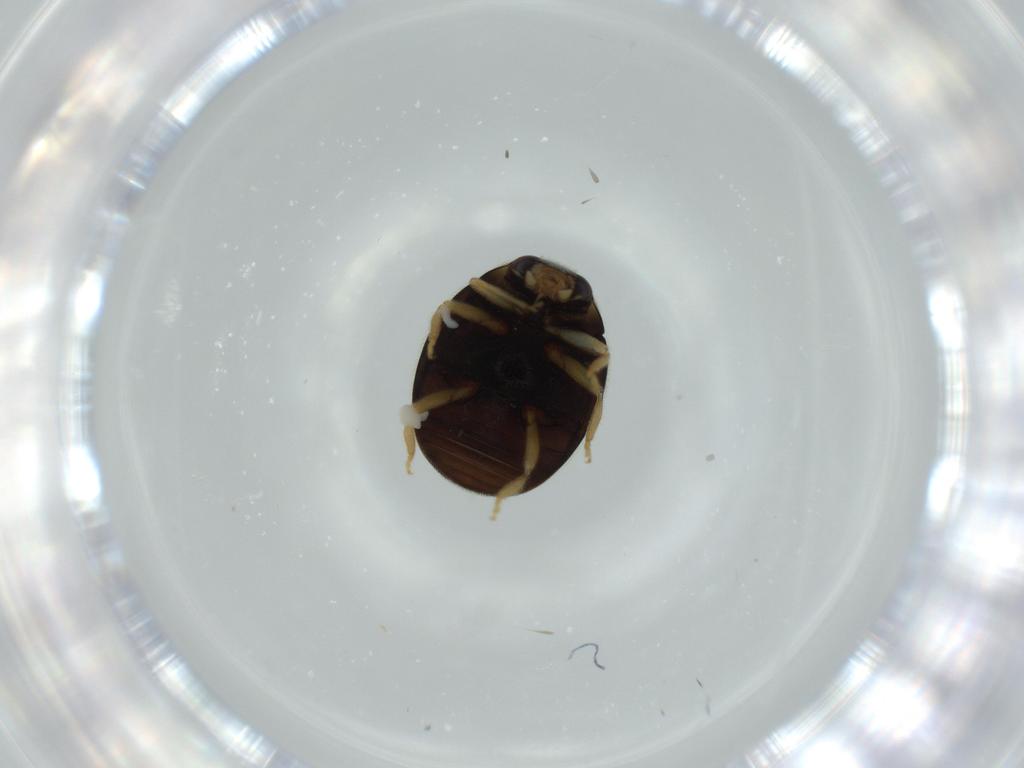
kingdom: Animalia
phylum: Arthropoda
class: Insecta
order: Coleoptera
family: Coccinellidae
